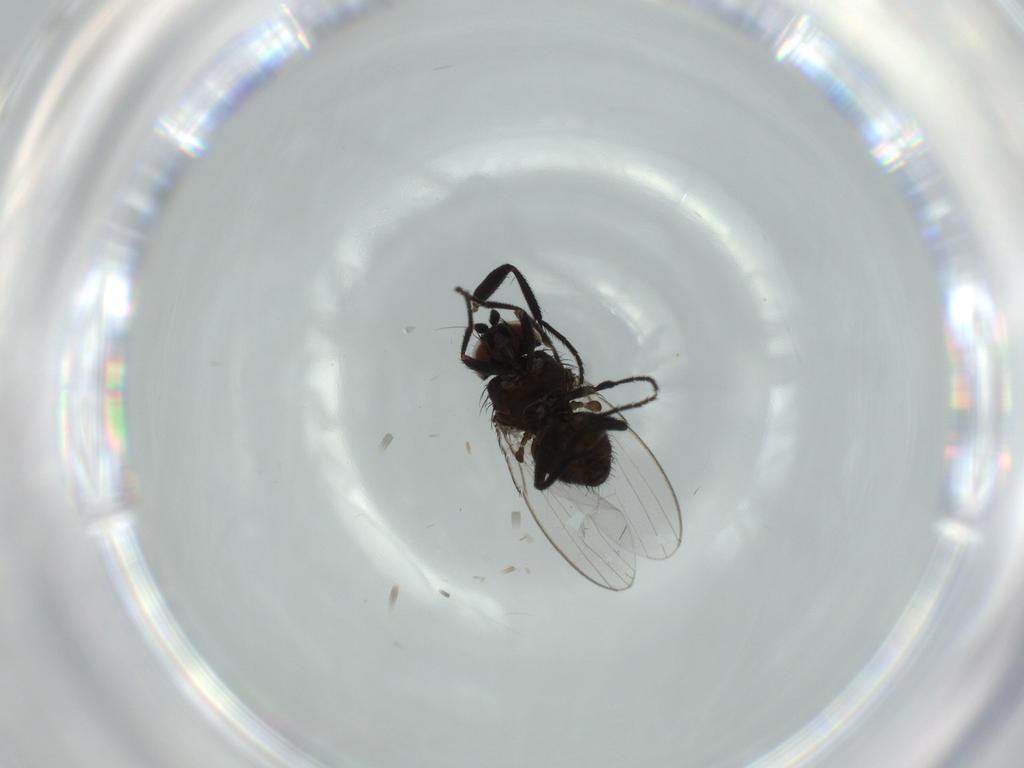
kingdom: Animalia
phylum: Arthropoda
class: Insecta
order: Diptera
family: Milichiidae
